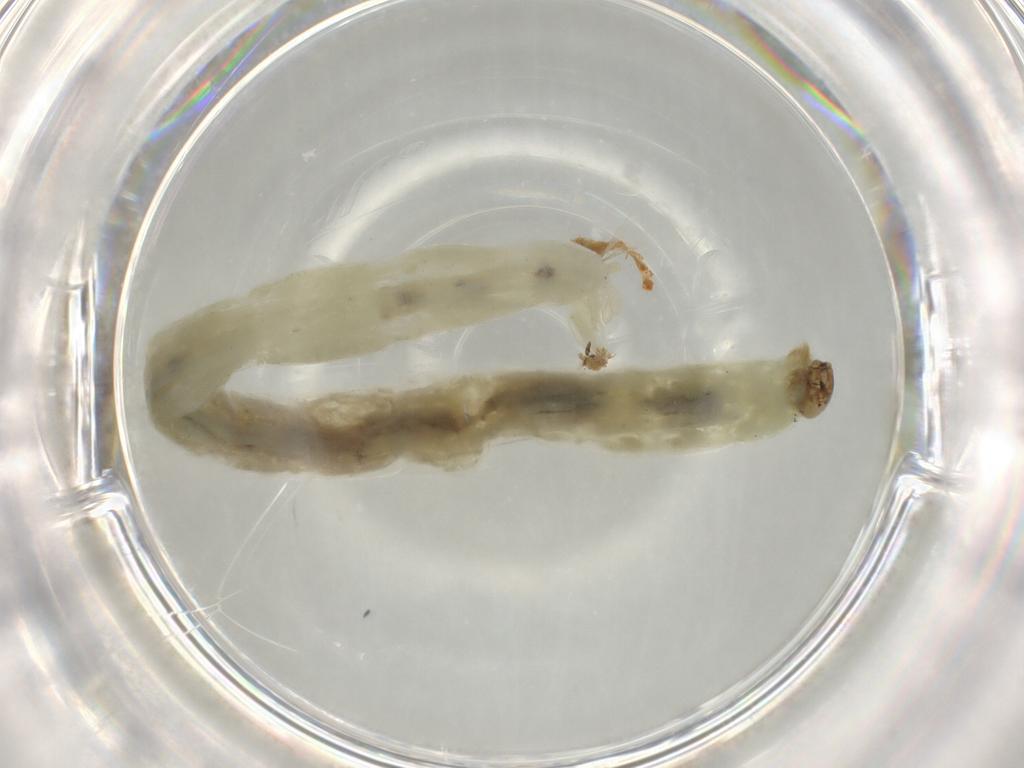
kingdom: Animalia
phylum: Arthropoda
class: Insecta
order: Diptera
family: Chironomidae
